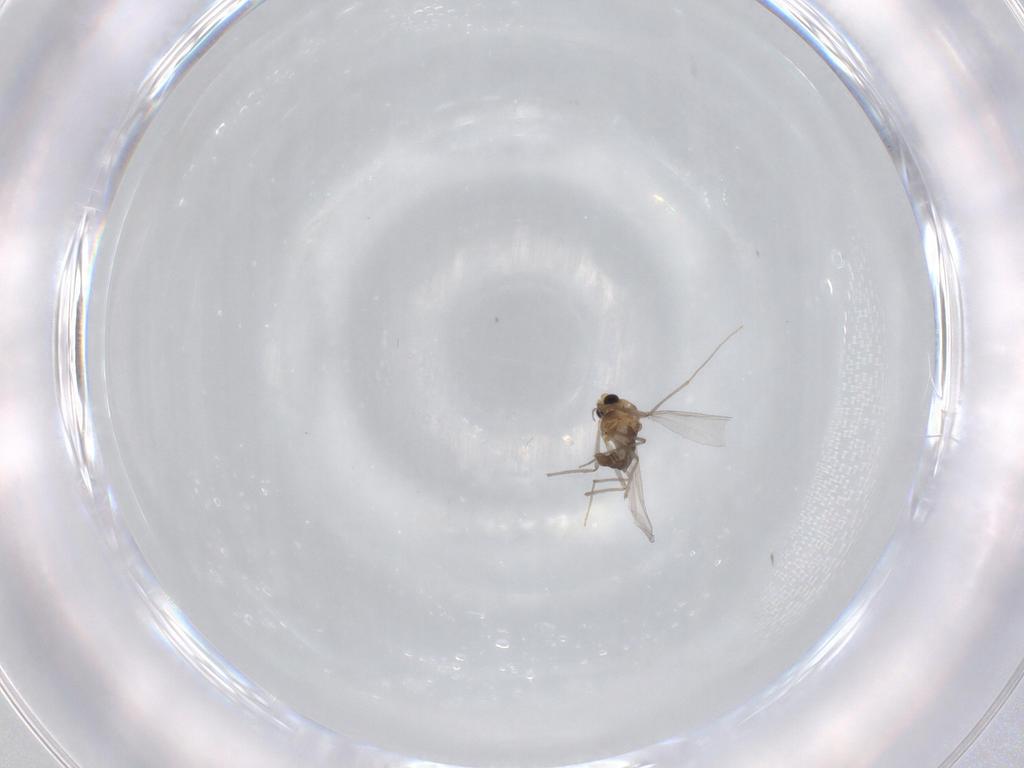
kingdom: Animalia
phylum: Arthropoda
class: Insecta
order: Diptera
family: Chironomidae
